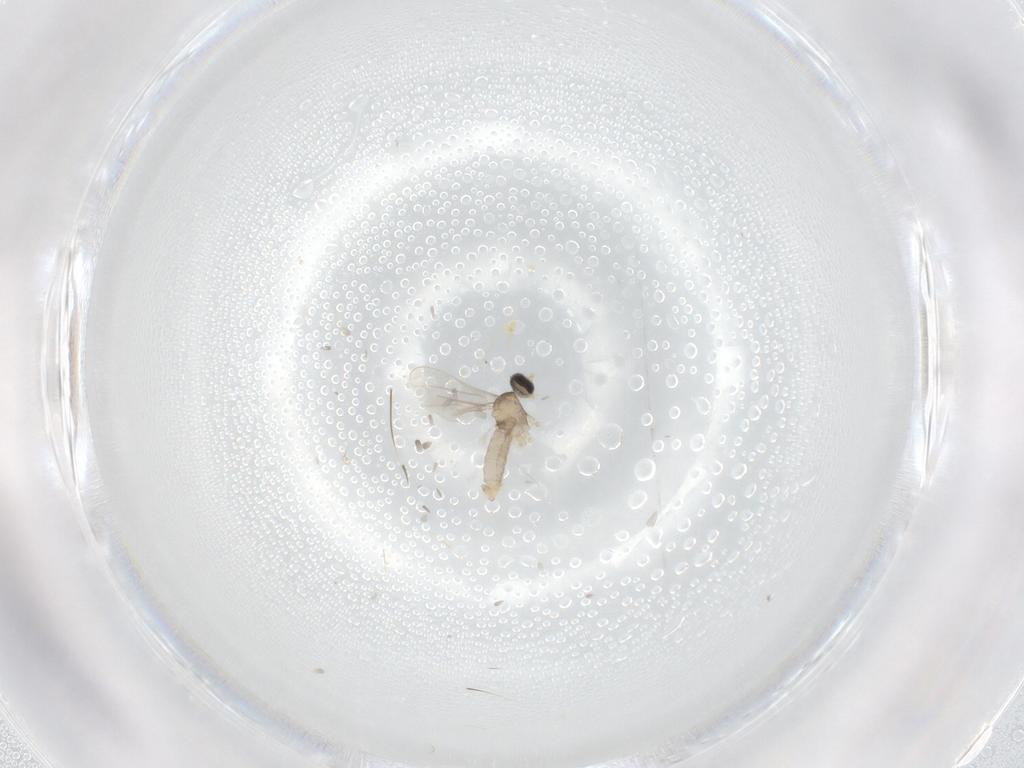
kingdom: Animalia
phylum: Arthropoda
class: Insecta
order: Diptera
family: Cecidomyiidae
